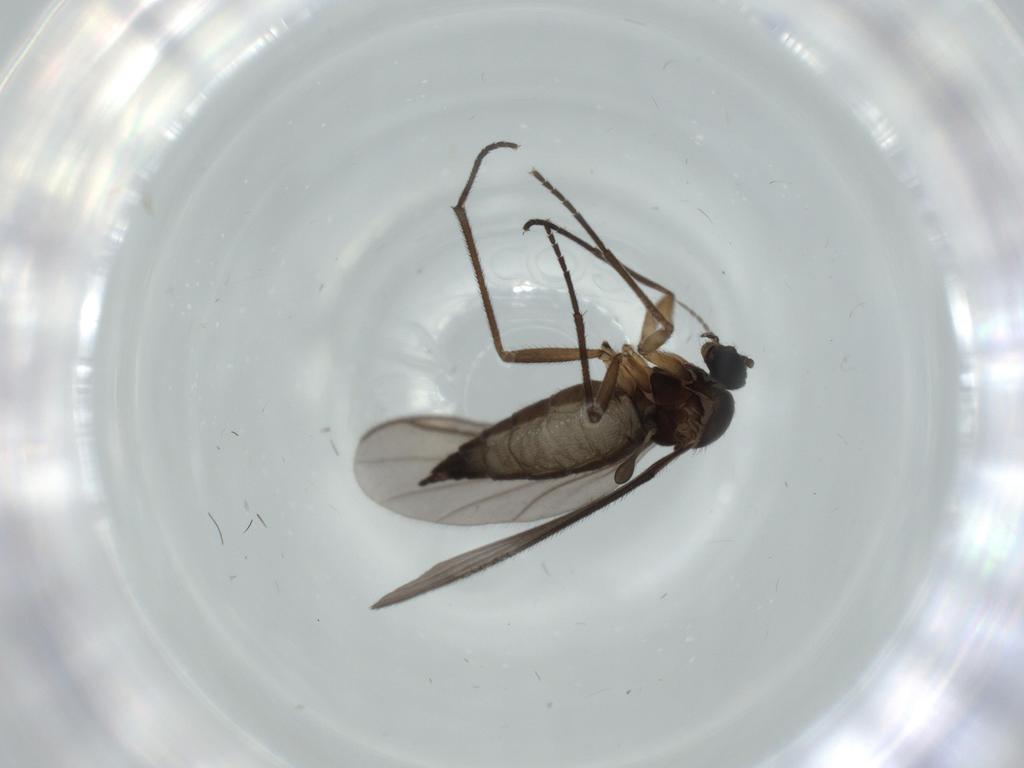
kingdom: Animalia
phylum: Arthropoda
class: Insecta
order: Diptera
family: Sciaridae
